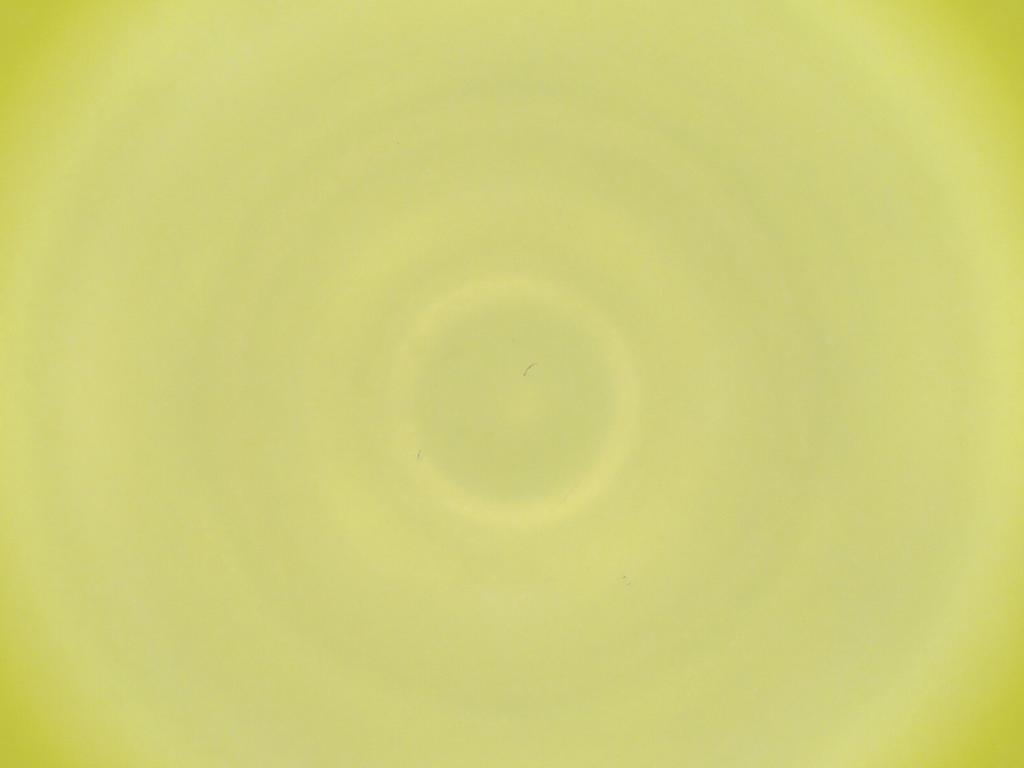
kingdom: Animalia
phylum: Arthropoda
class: Insecta
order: Diptera
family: Cecidomyiidae
